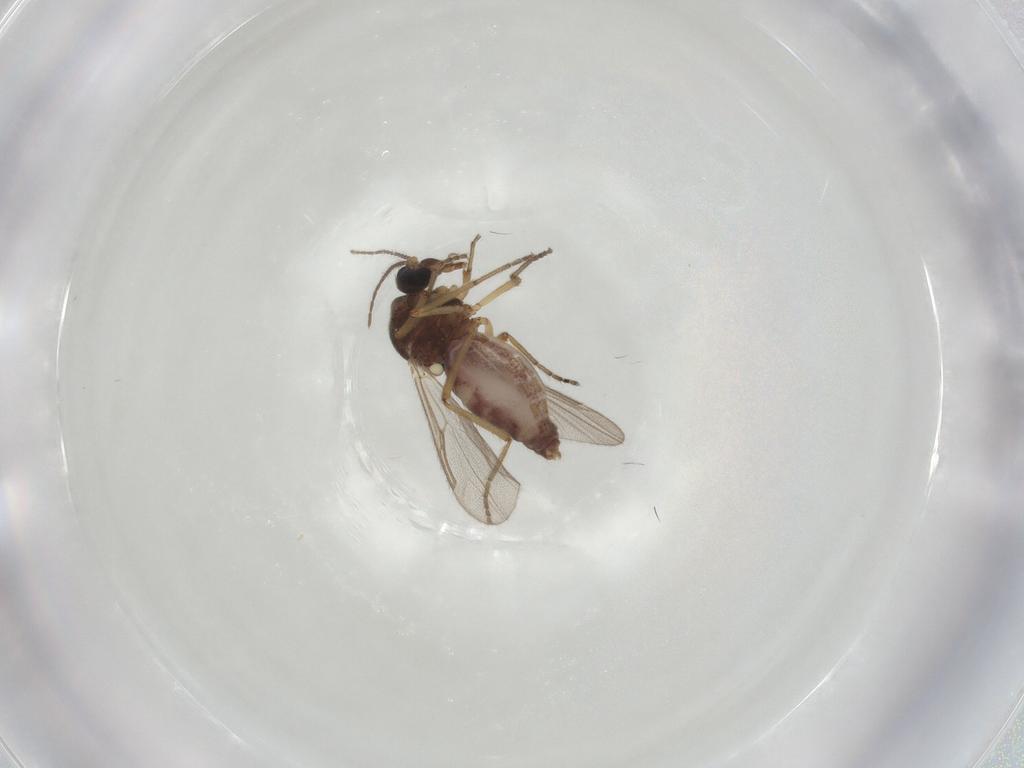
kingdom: Animalia
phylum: Arthropoda
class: Insecta
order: Diptera
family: Ceratopogonidae
